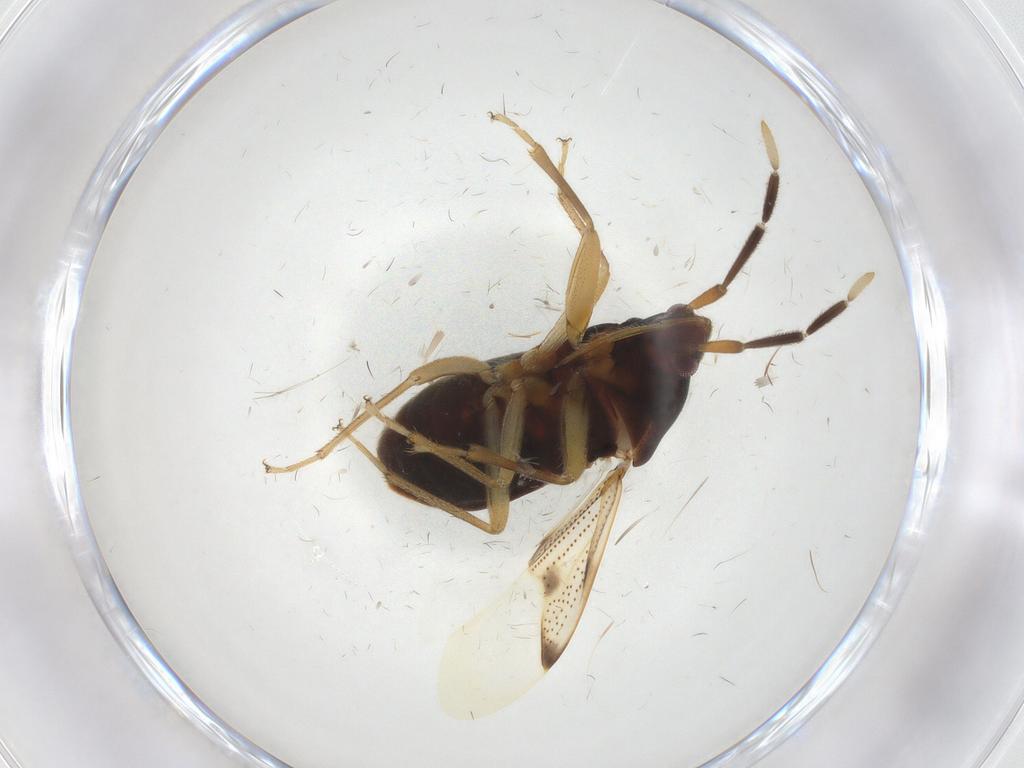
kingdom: Animalia
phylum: Arthropoda
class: Insecta
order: Hemiptera
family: Rhyparochromidae
